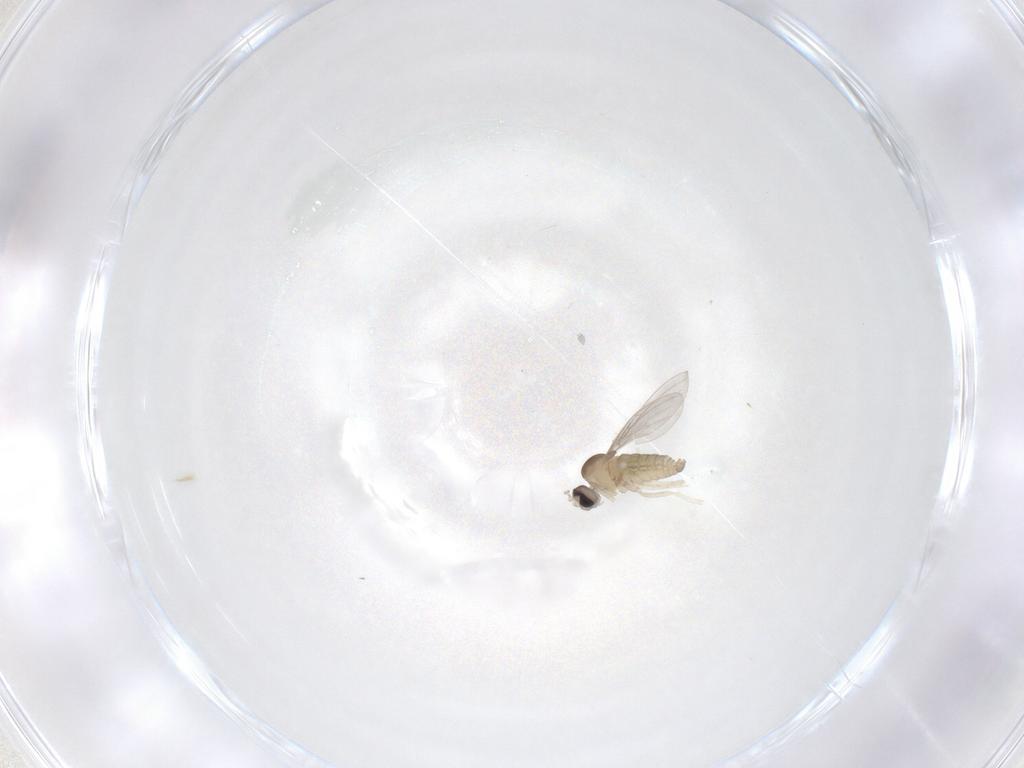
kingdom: Animalia
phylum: Arthropoda
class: Insecta
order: Diptera
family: Cecidomyiidae
